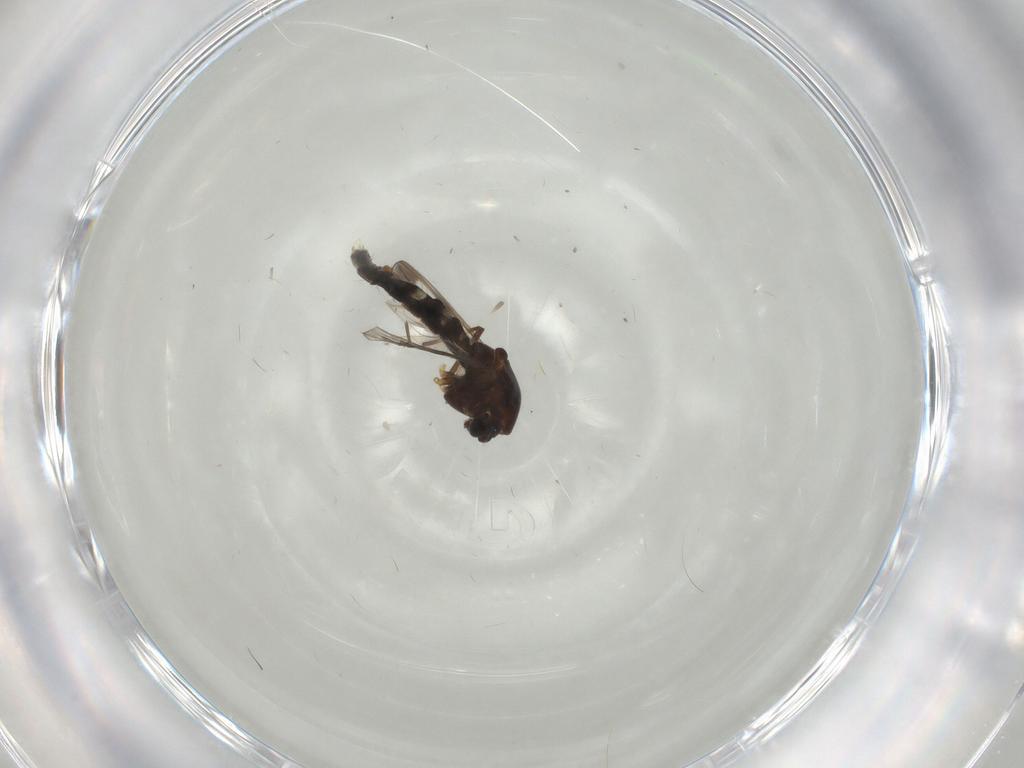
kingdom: Animalia
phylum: Arthropoda
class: Insecta
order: Diptera
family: Chironomidae
